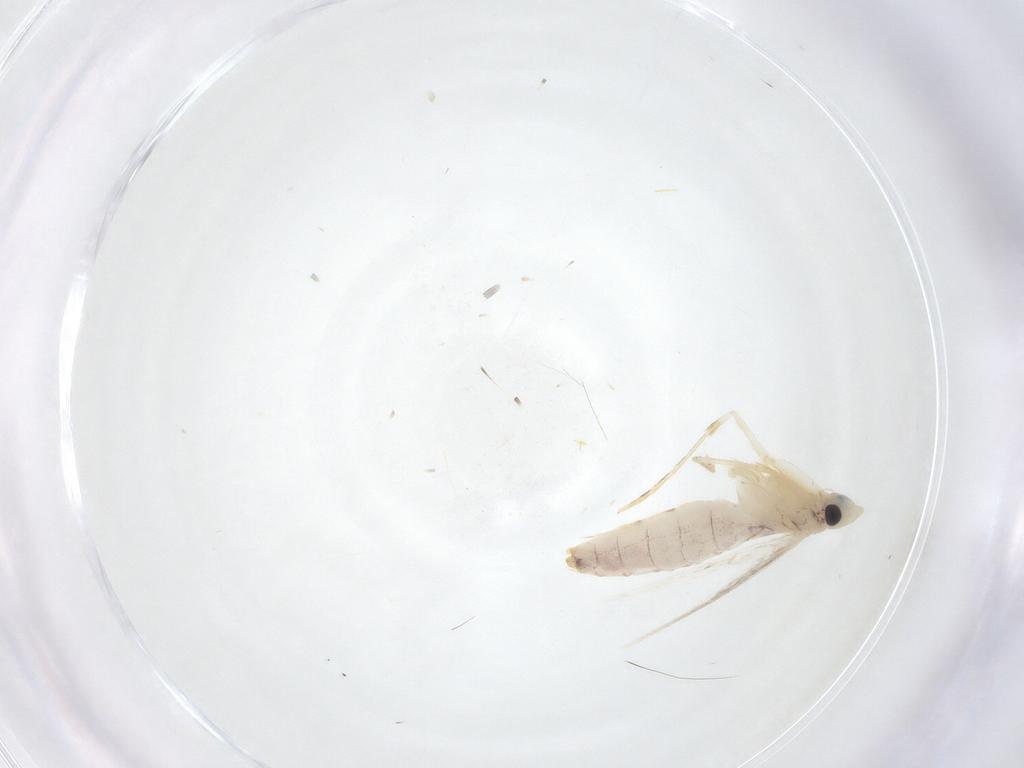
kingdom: Animalia
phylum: Arthropoda
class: Insecta
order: Lepidoptera
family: Tineidae
